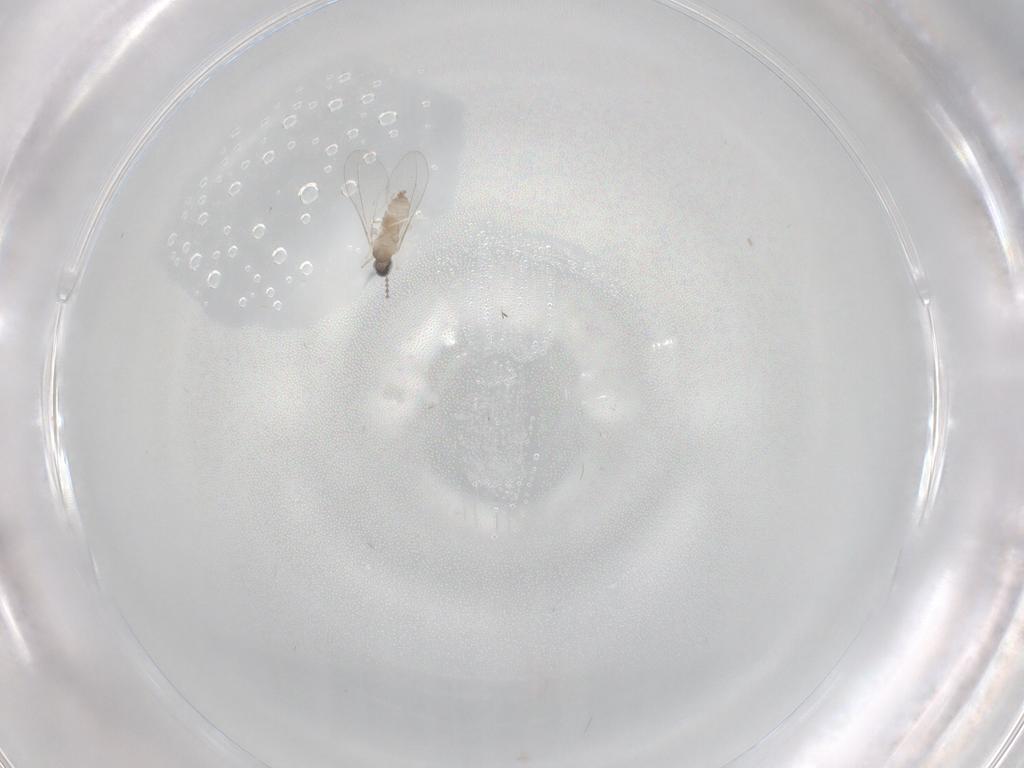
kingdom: Animalia
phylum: Arthropoda
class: Insecta
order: Diptera
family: Cecidomyiidae
